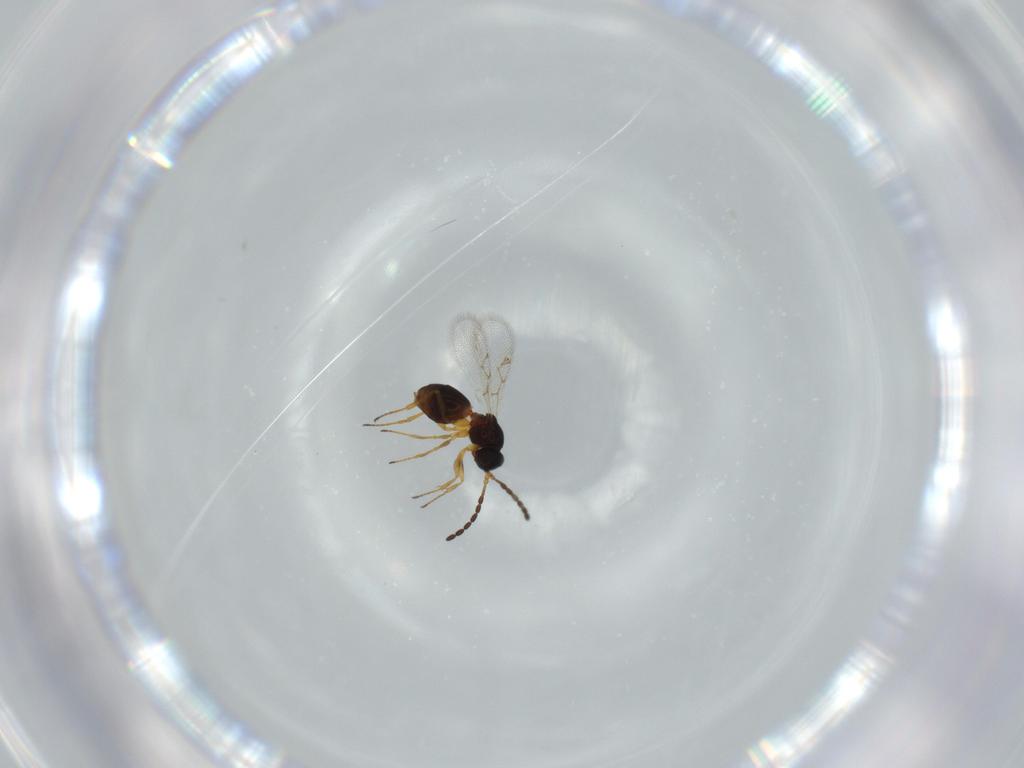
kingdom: Animalia
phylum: Arthropoda
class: Insecta
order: Hymenoptera
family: Figitidae
